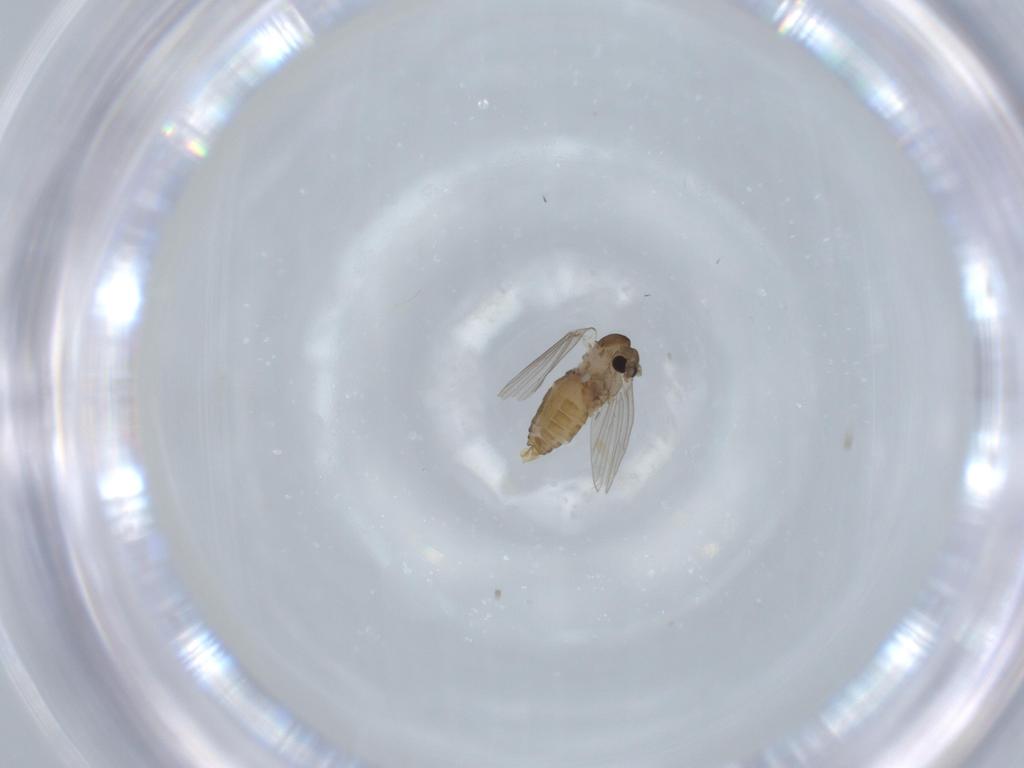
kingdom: Animalia
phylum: Arthropoda
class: Insecta
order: Diptera
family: Psychodidae
